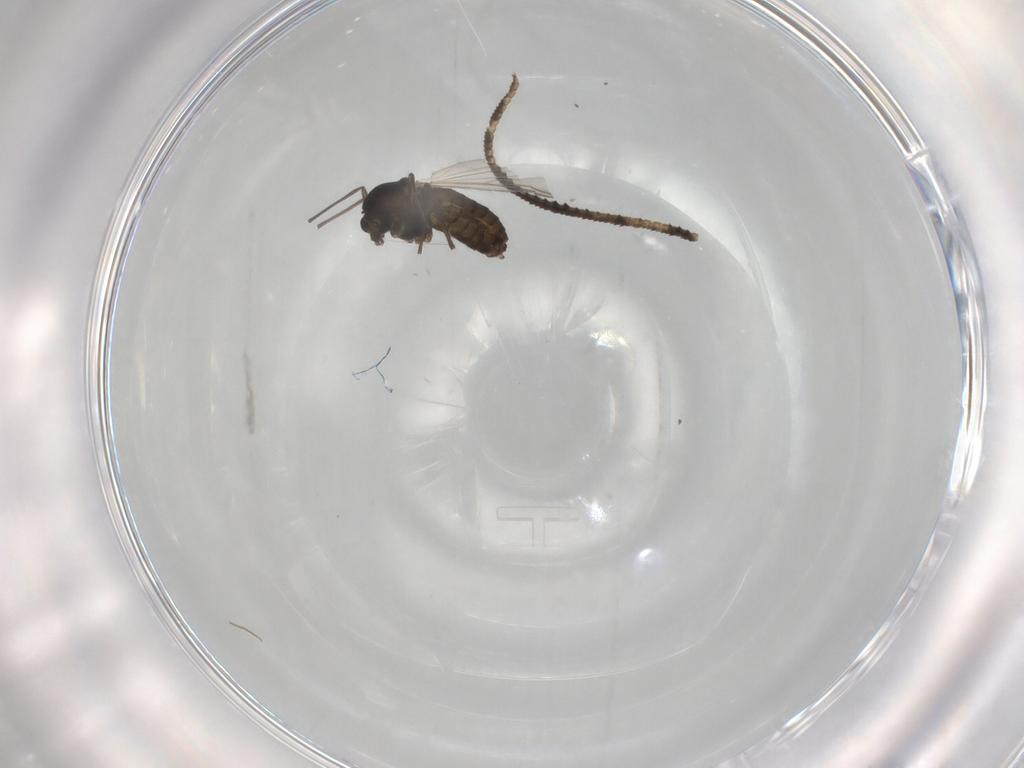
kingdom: Animalia
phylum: Arthropoda
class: Insecta
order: Diptera
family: Chironomidae
